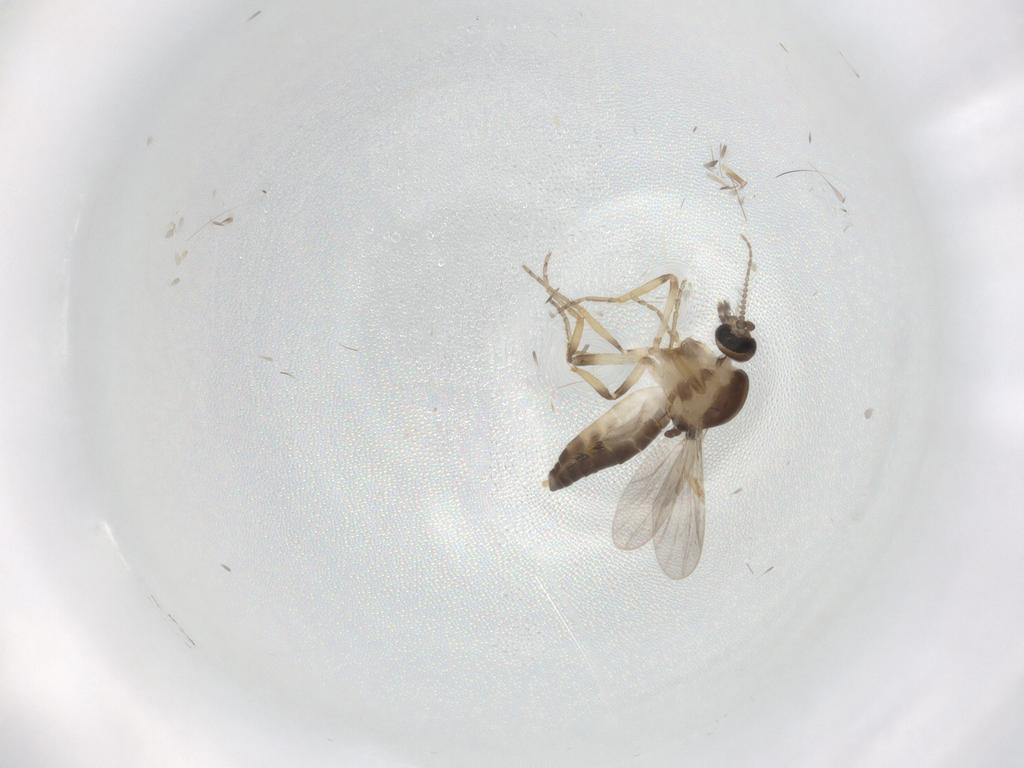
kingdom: Animalia
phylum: Arthropoda
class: Insecta
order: Diptera
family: Ceratopogonidae
